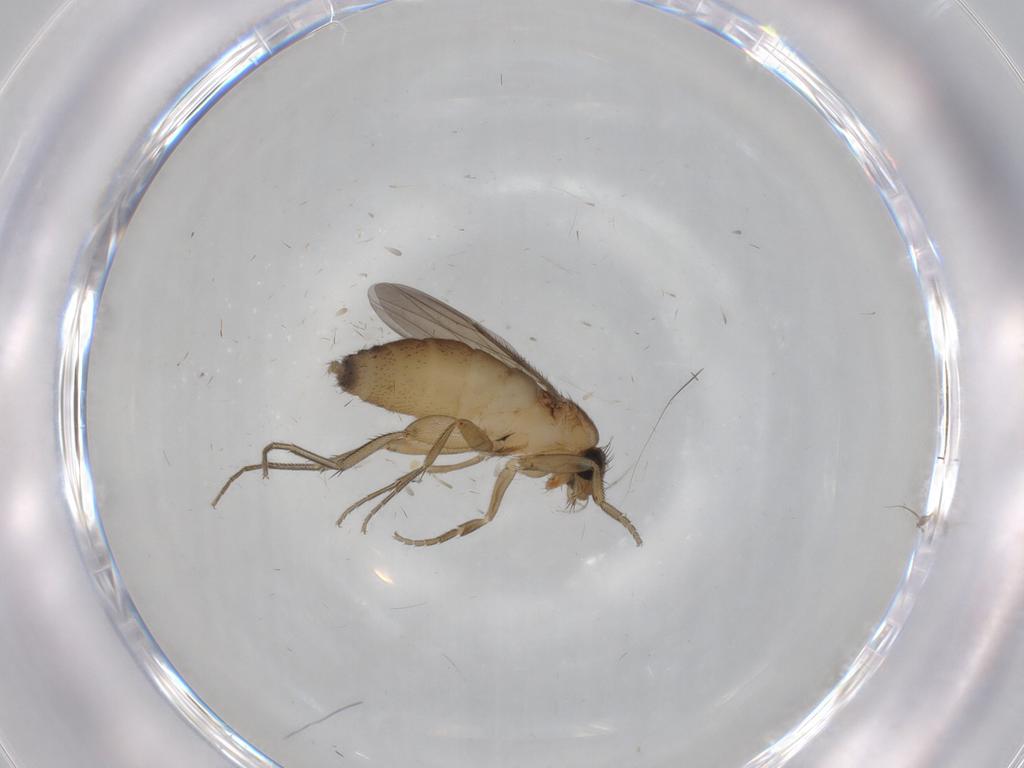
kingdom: Animalia
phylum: Arthropoda
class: Insecta
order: Diptera
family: Phoridae
